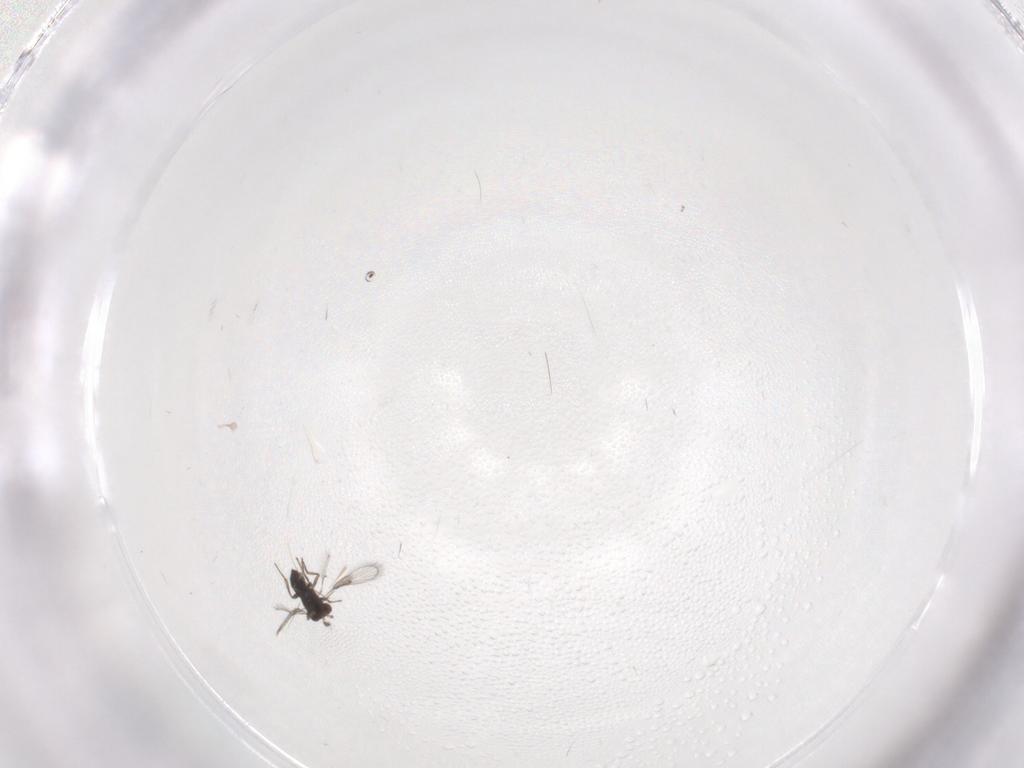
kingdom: Animalia
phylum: Arthropoda
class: Insecta
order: Hymenoptera
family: Trichogrammatidae
